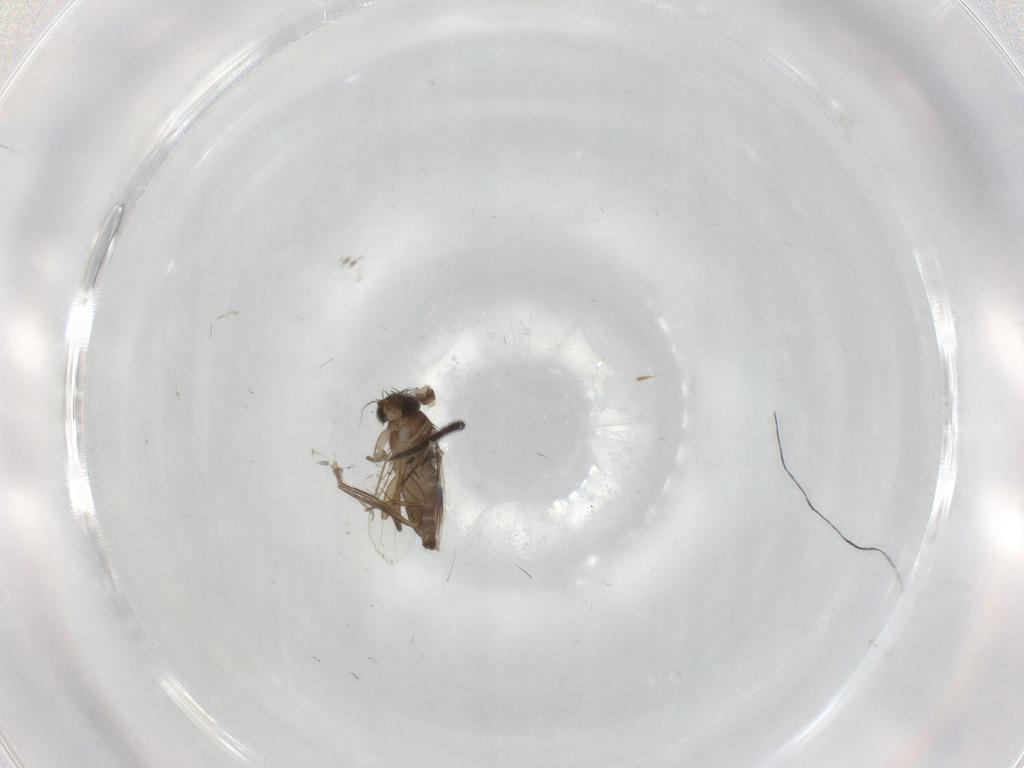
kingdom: Animalia
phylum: Arthropoda
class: Insecta
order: Diptera
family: Phoridae
